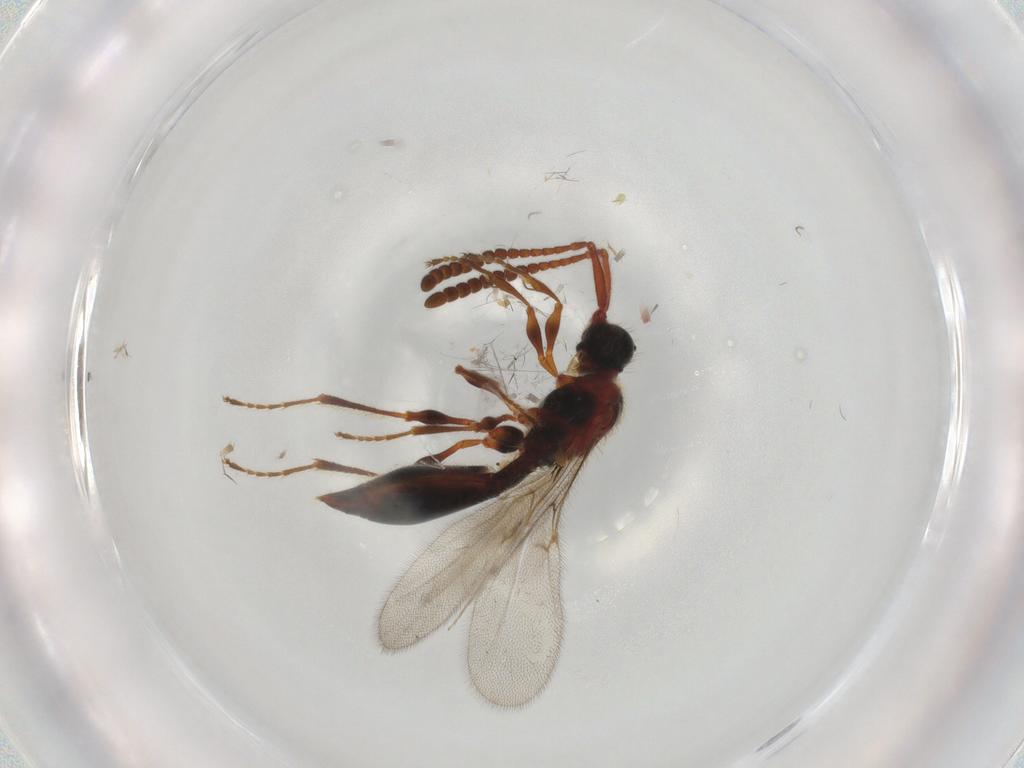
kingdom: Animalia
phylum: Arthropoda
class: Insecta
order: Hymenoptera
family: Diapriidae
